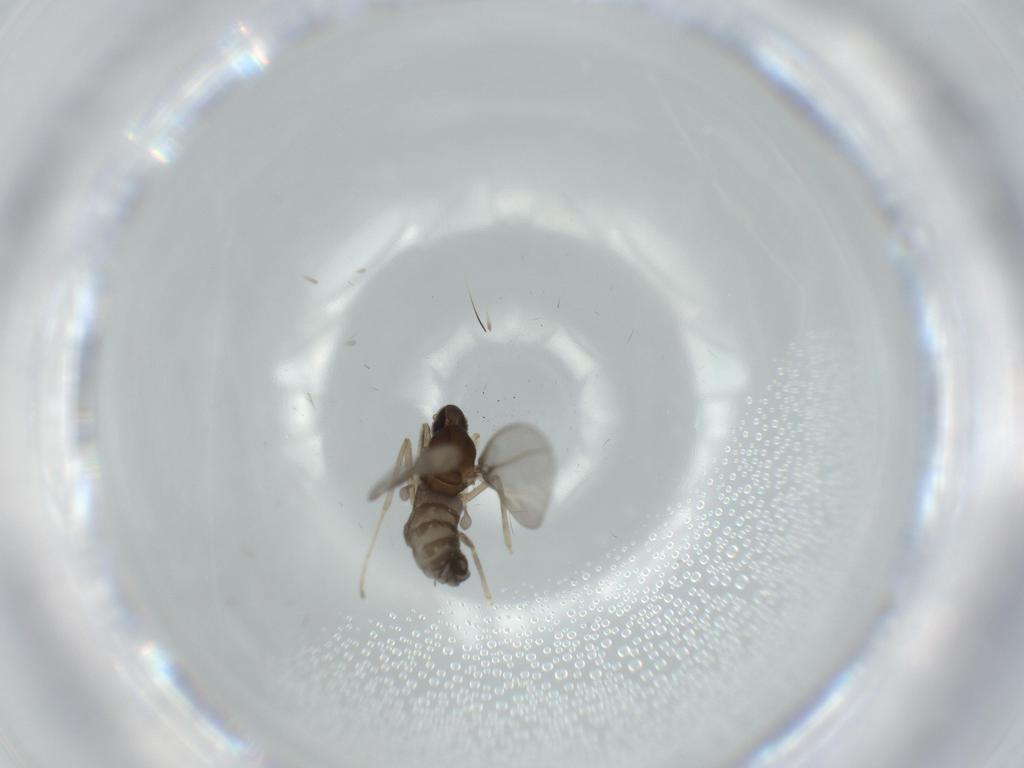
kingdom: Animalia
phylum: Arthropoda
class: Insecta
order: Diptera
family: Cecidomyiidae
